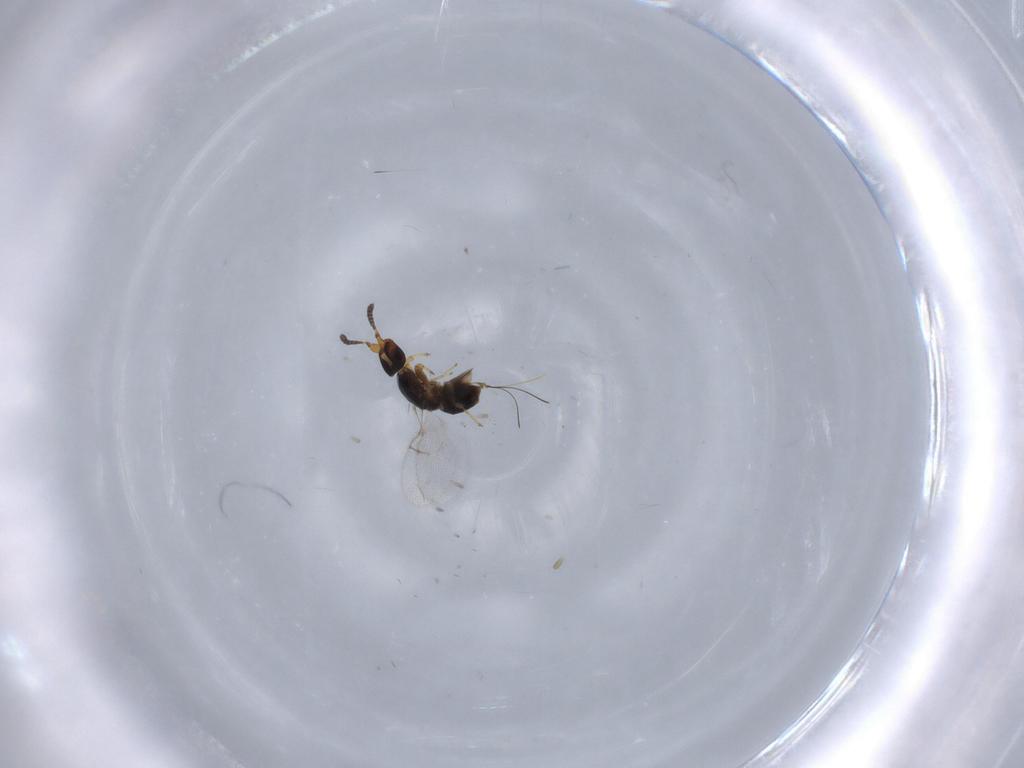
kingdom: Animalia
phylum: Arthropoda
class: Insecta
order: Hymenoptera
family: Agaonidae
